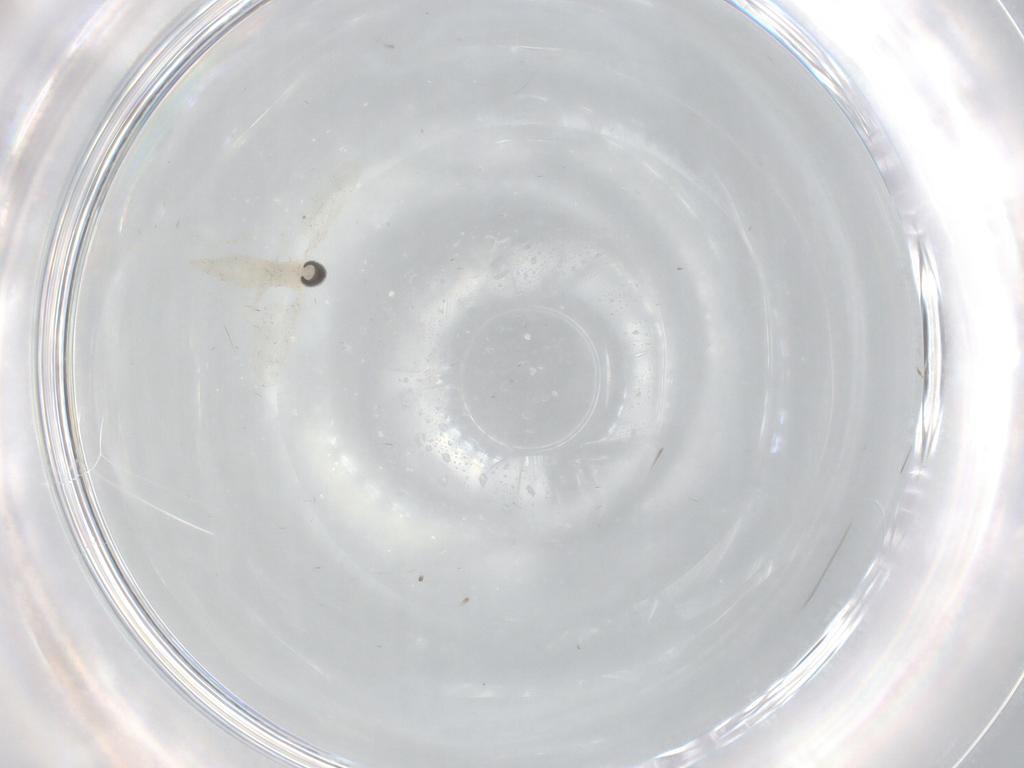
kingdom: Animalia
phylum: Arthropoda
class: Insecta
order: Diptera
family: Cecidomyiidae
